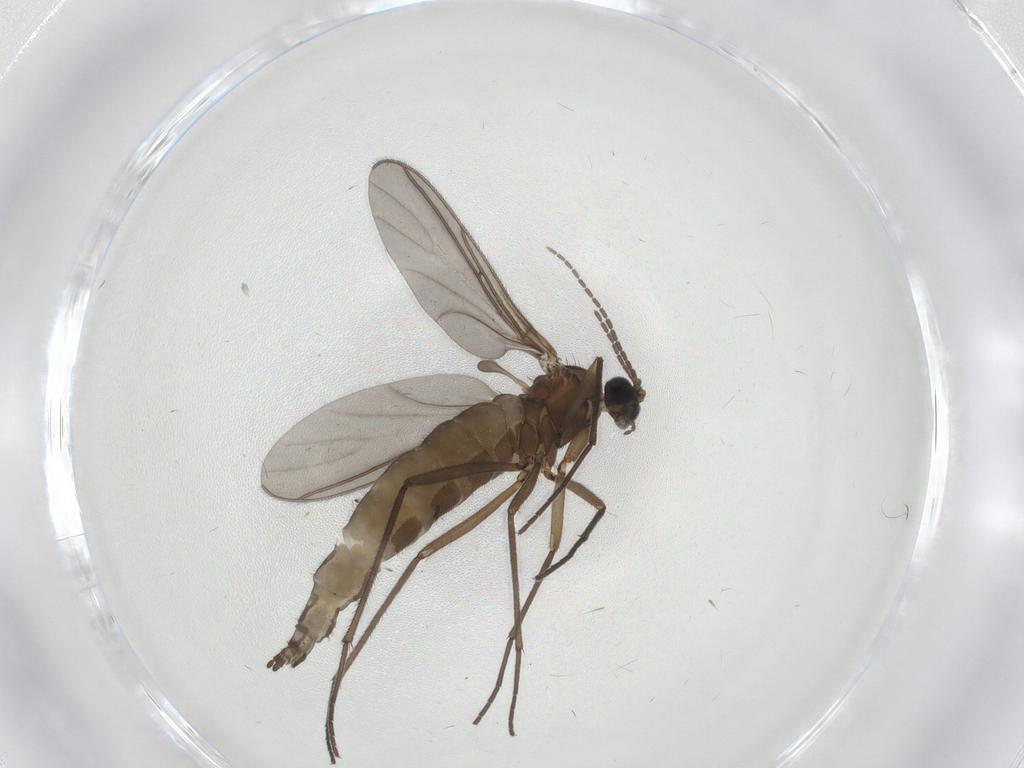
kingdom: Animalia
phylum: Arthropoda
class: Insecta
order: Diptera
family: Sciaridae
